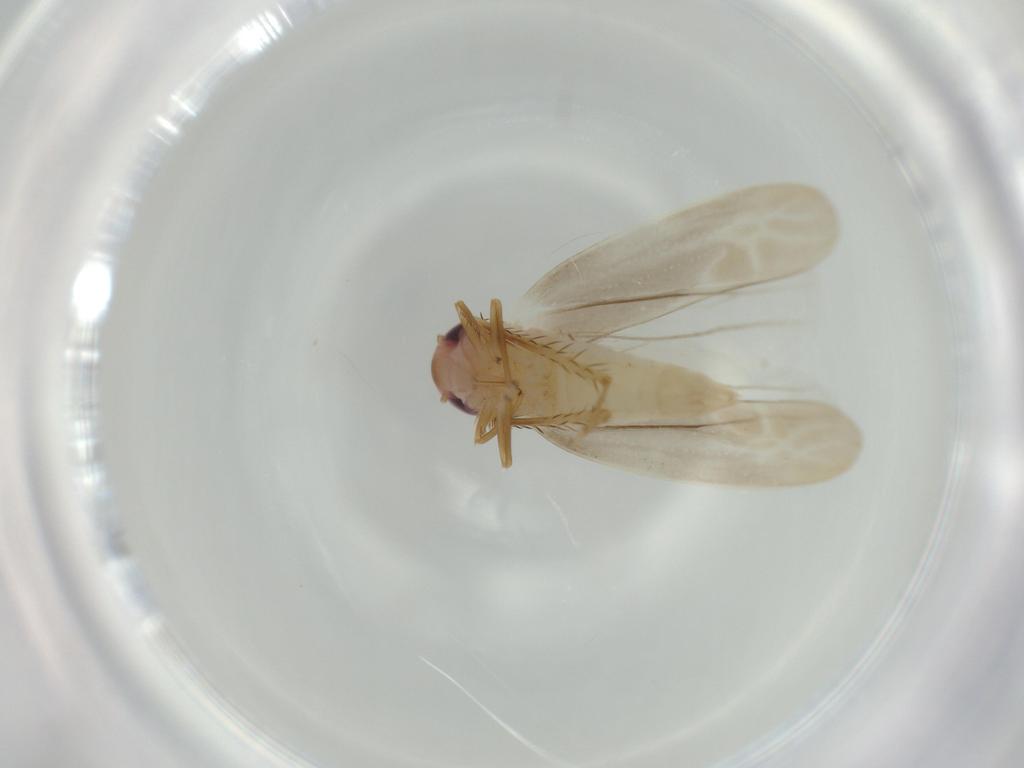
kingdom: Animalia
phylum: Arthropoda
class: Insecta
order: Hemiptera
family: Cicadellidae
